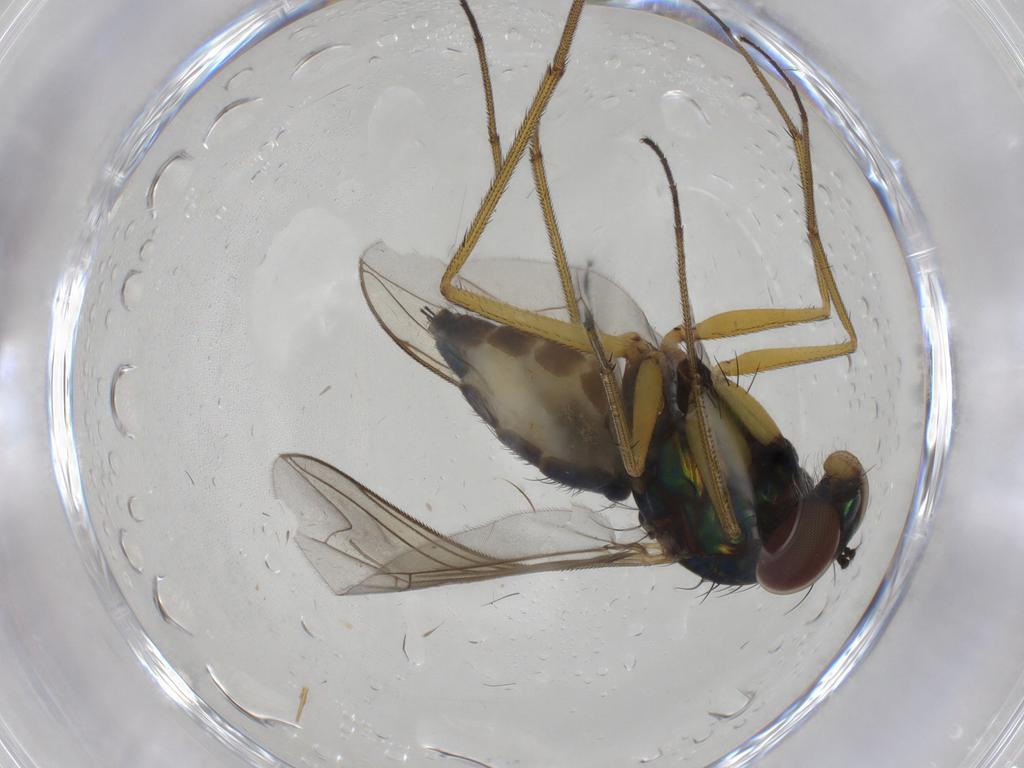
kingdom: Animalia
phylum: Arthropoda
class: Insecta
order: Diptera
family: Dolichopodidae
